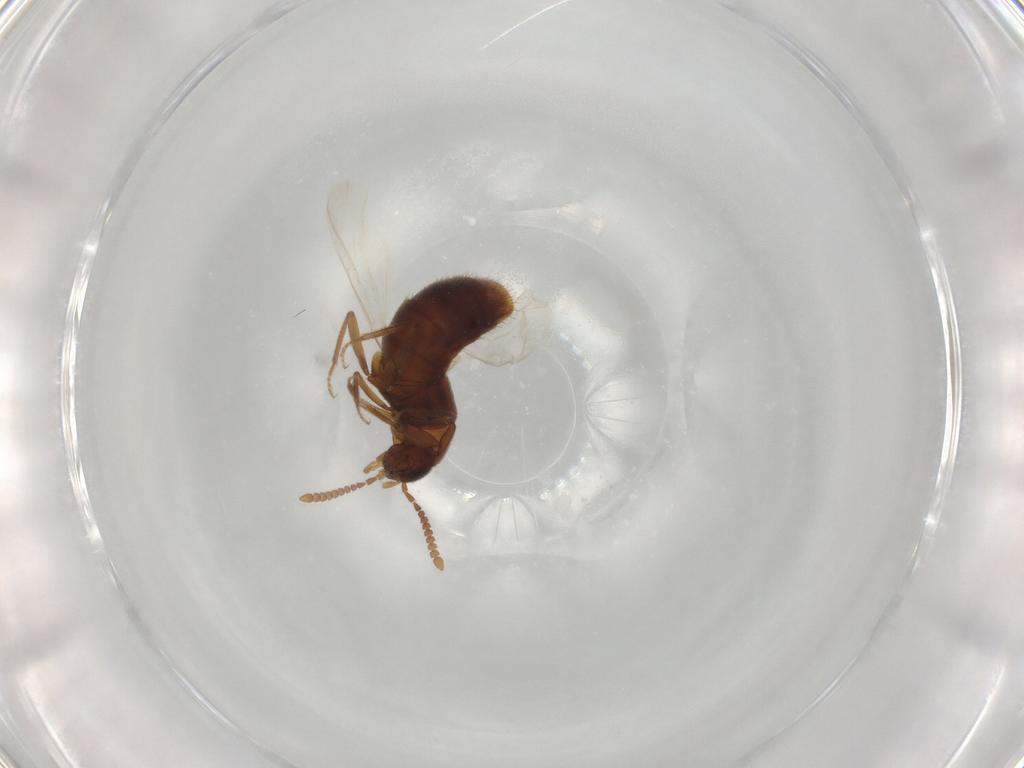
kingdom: Animalia
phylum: Arthropoda
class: Insecta
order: Coleoptera
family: Staphylinidae
